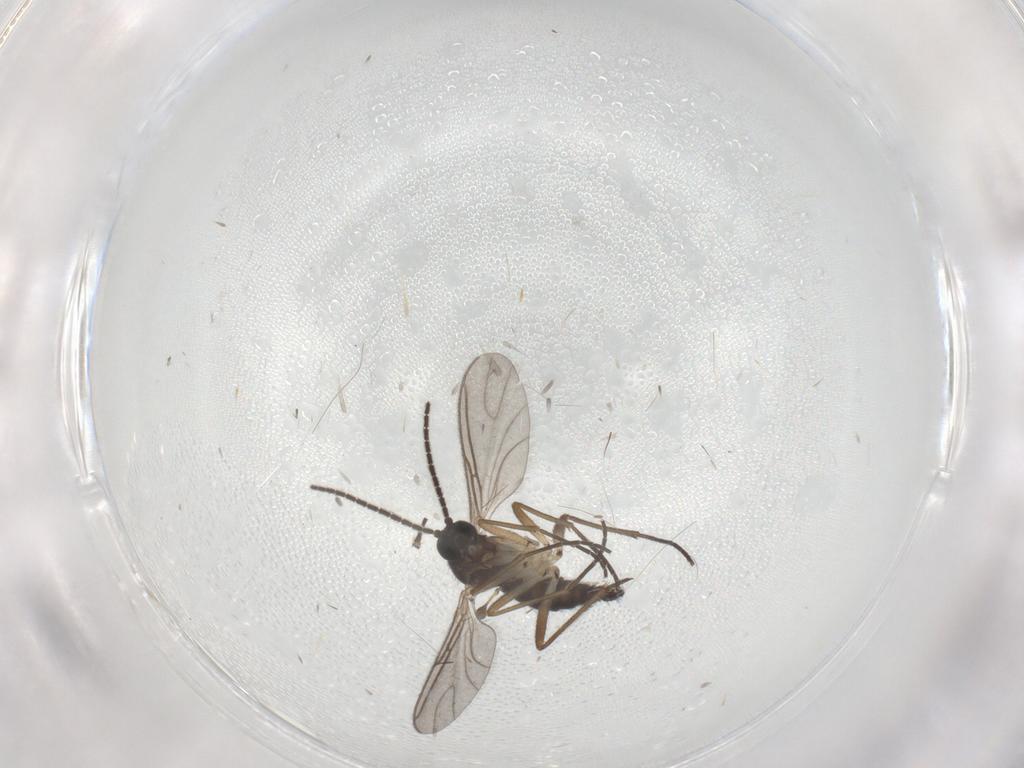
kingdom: Animalia
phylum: Arthropoda
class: Insecta
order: Diptera
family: Sciaridae
